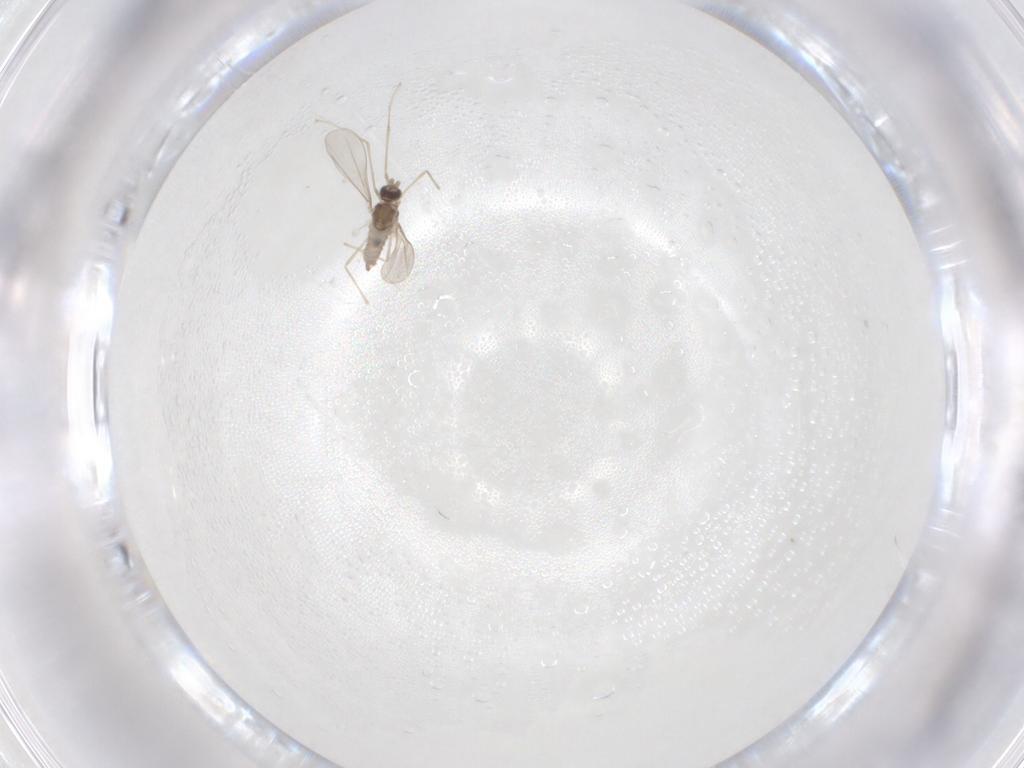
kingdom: Animalia
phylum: Arthropoda
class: Insecta
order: Diptera
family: Cecidomyiidae
